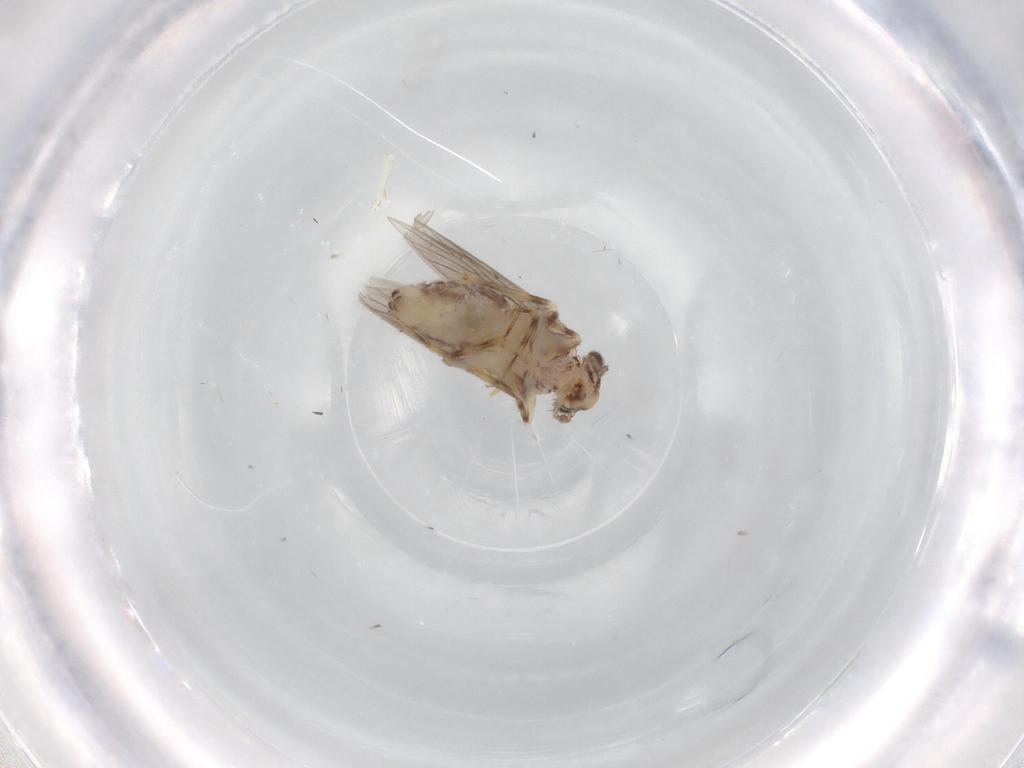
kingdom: Animalia
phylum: Arthropoda
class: Insecta
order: Psocodea
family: Lepidopsocidae
